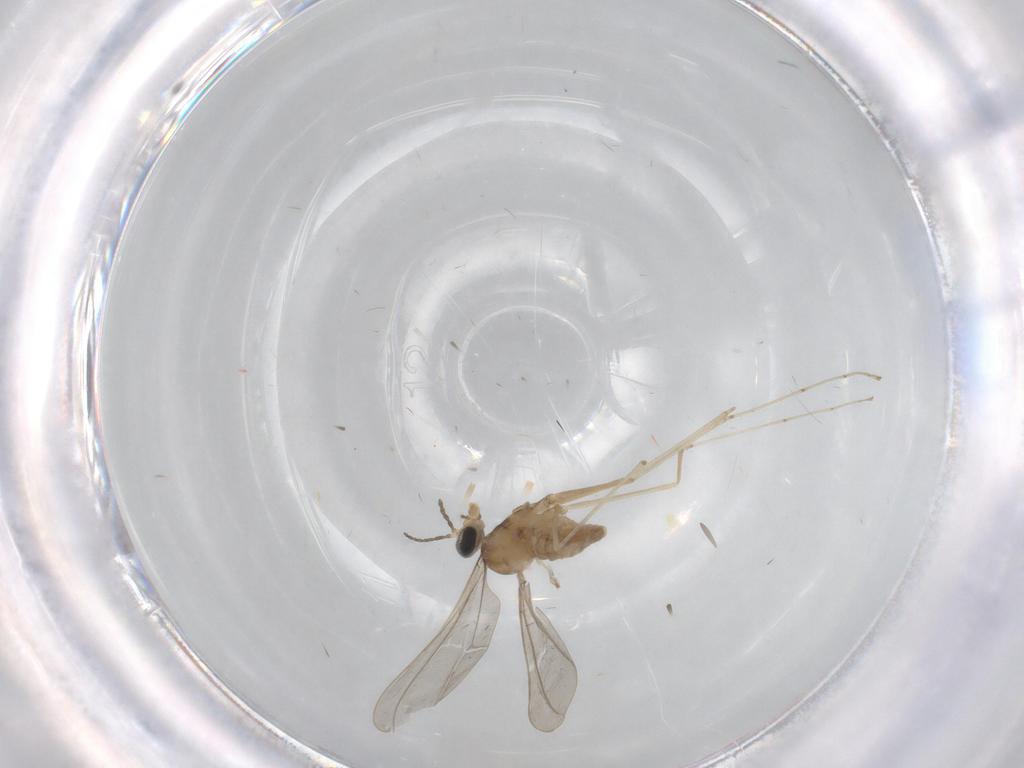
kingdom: Animalia
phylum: Arthropoda
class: Insecta
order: Diptera
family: Cecidomyiidae
